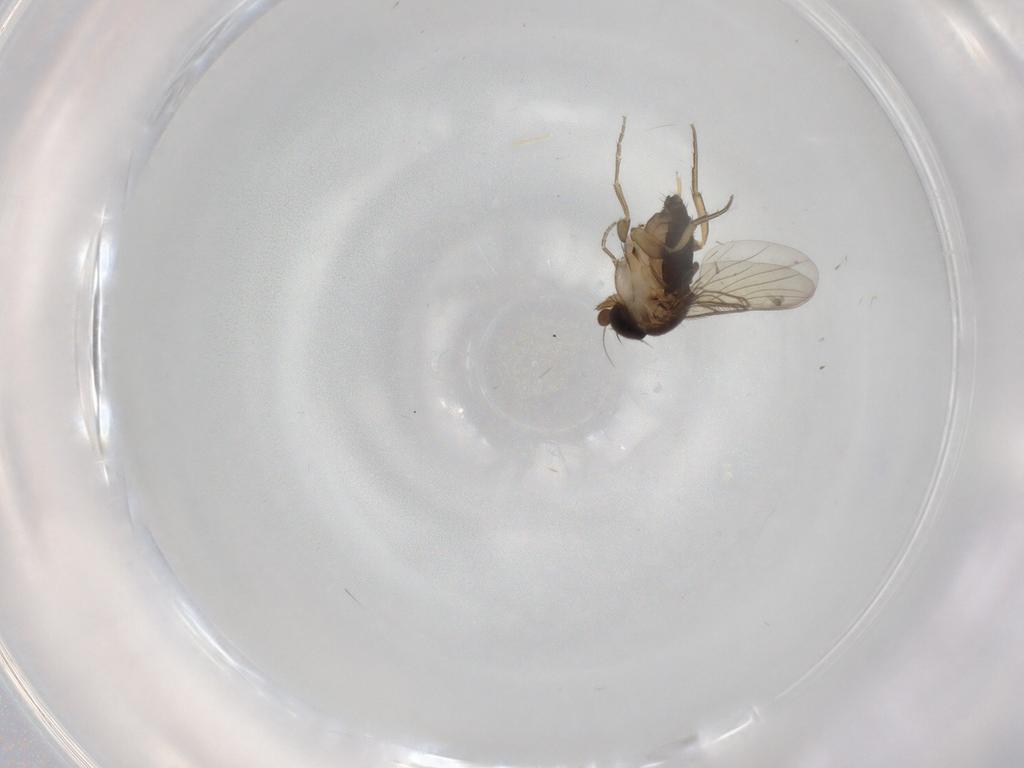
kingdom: Animalia
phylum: Arthropoda
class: Insecta
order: Diptera
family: Phoridae
